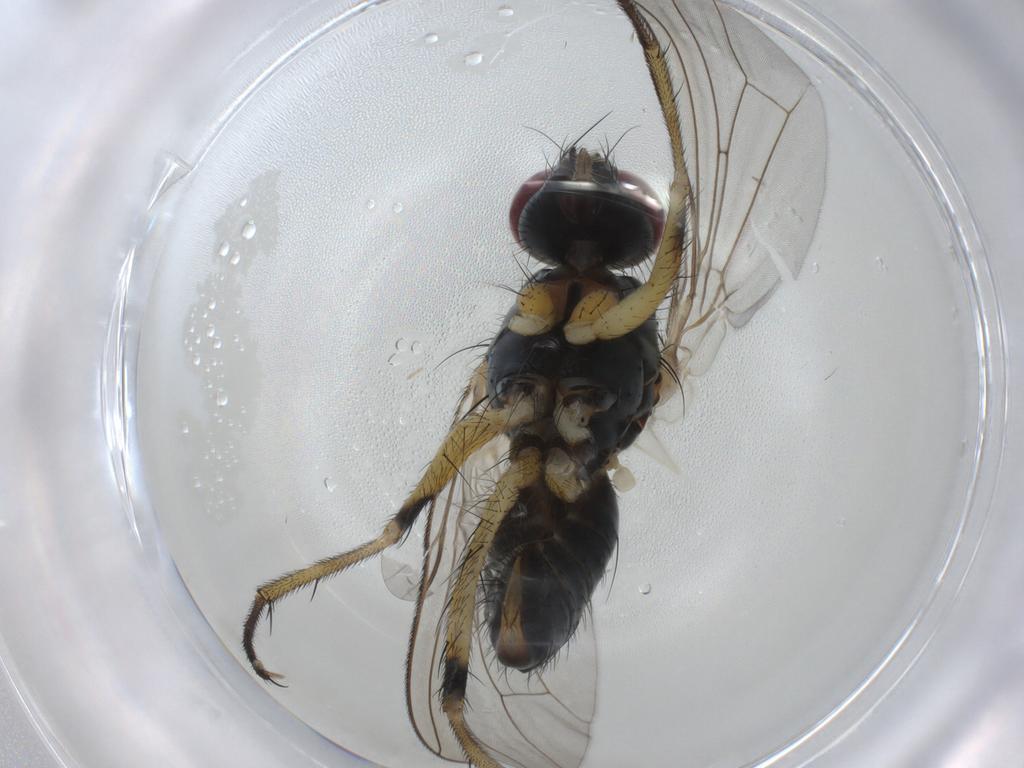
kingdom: Animalia
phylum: Arthropoda
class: Insecta
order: Diptera
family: Muscidae
